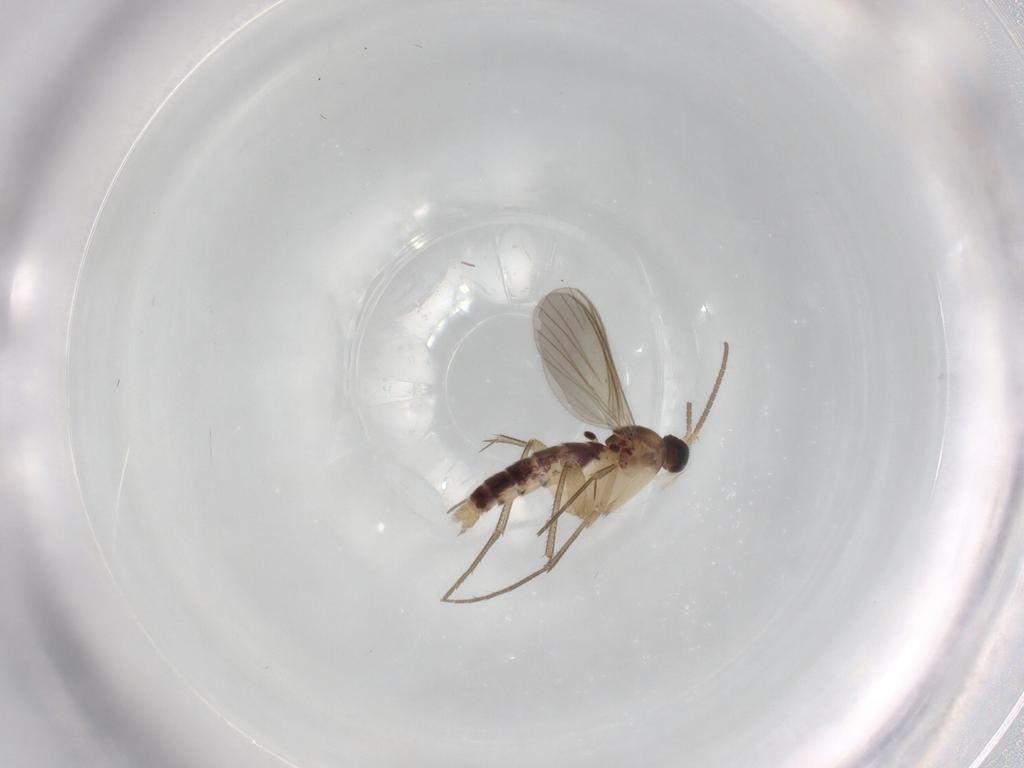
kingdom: Animalia
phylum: Arthropoda
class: Insecta
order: Diptera
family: Mycetophilidae
